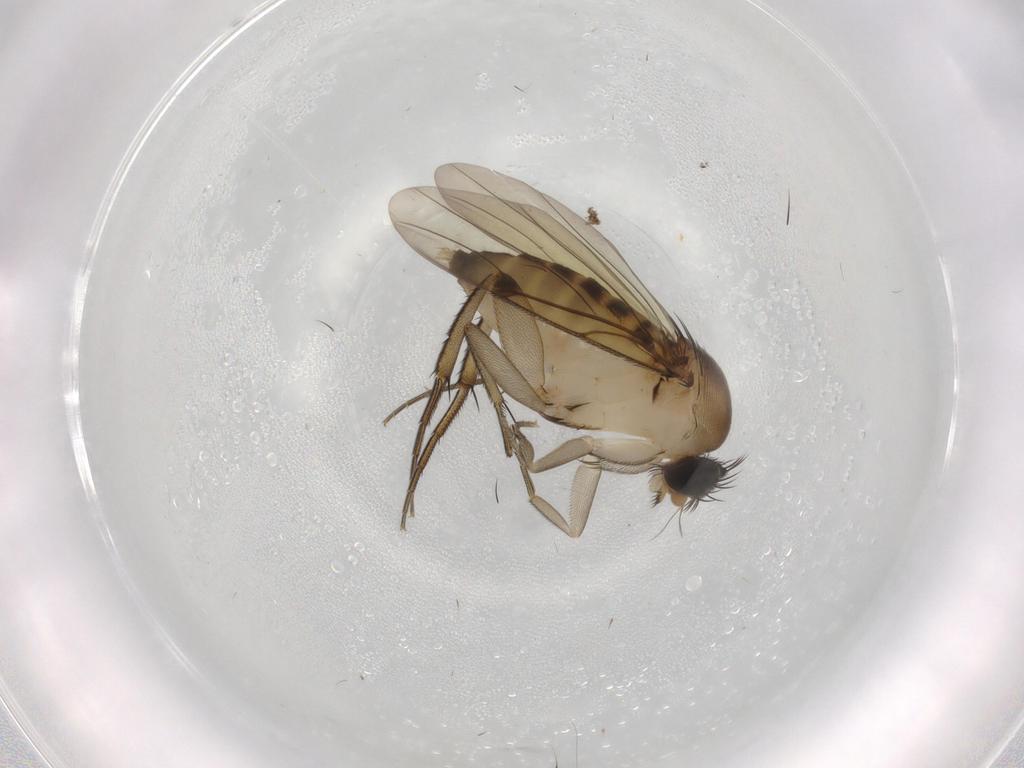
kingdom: Animalia
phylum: Arthropoda
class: Insecta
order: Diptera
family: Phoridae
